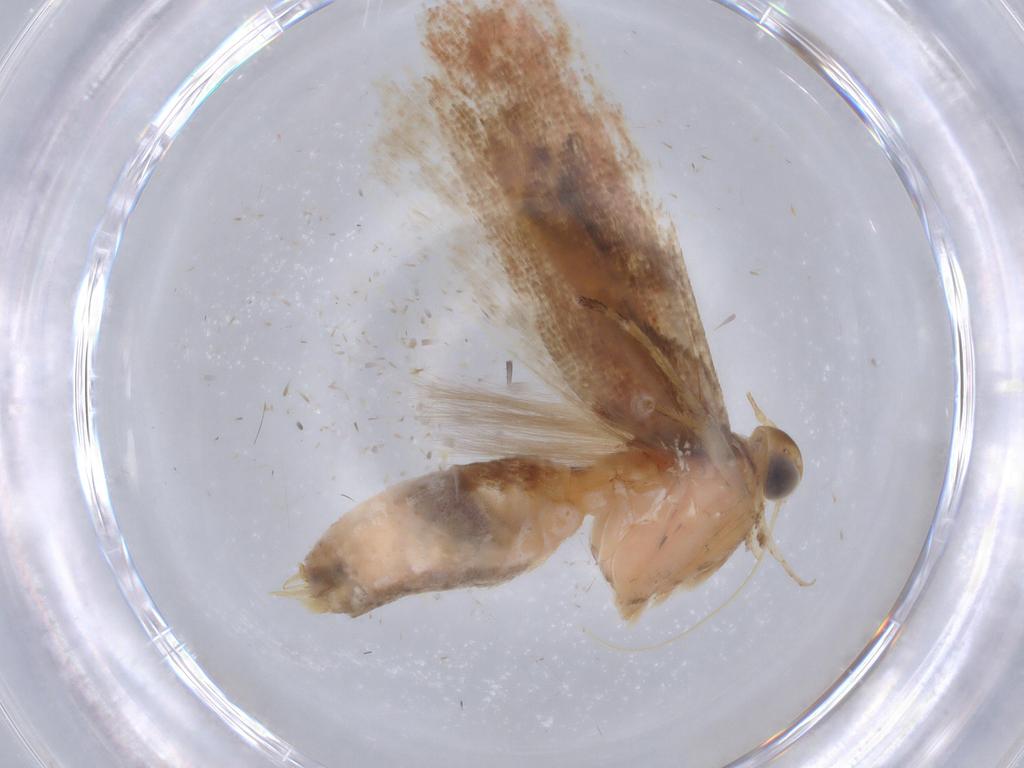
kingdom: Animalia
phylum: Arthropoda
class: Insecta
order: Lepidoptera
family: Gelechiidae
